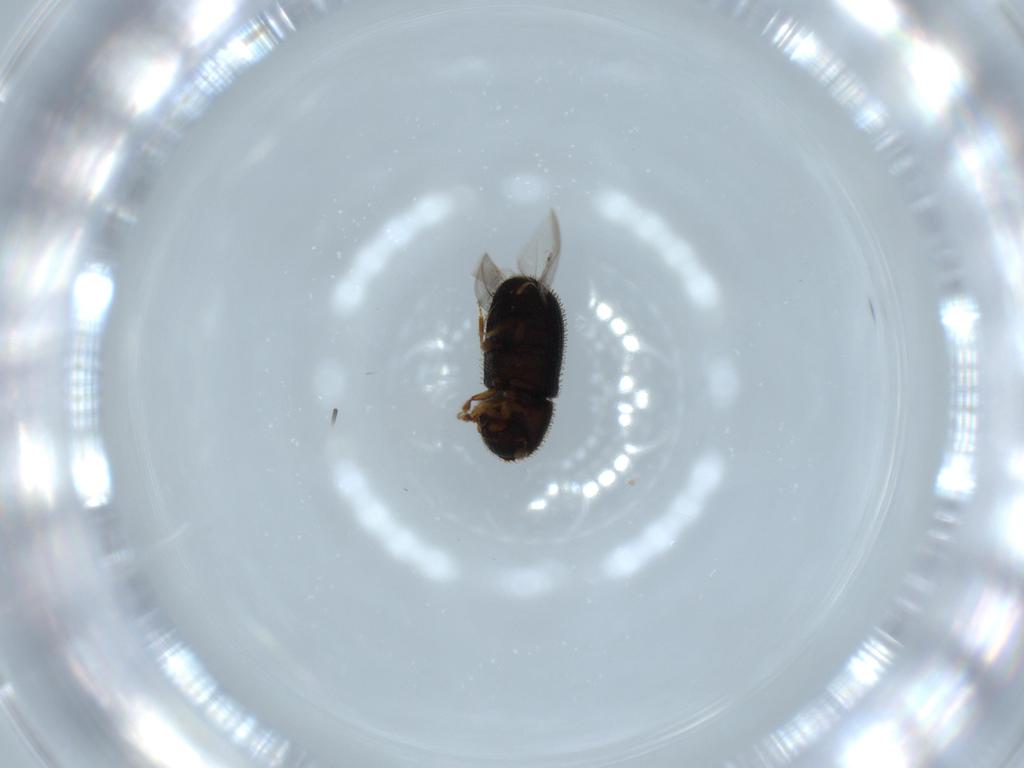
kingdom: Animalia
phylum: Arthropoda
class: Insecta
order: Coleoptera
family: Curculionidae
